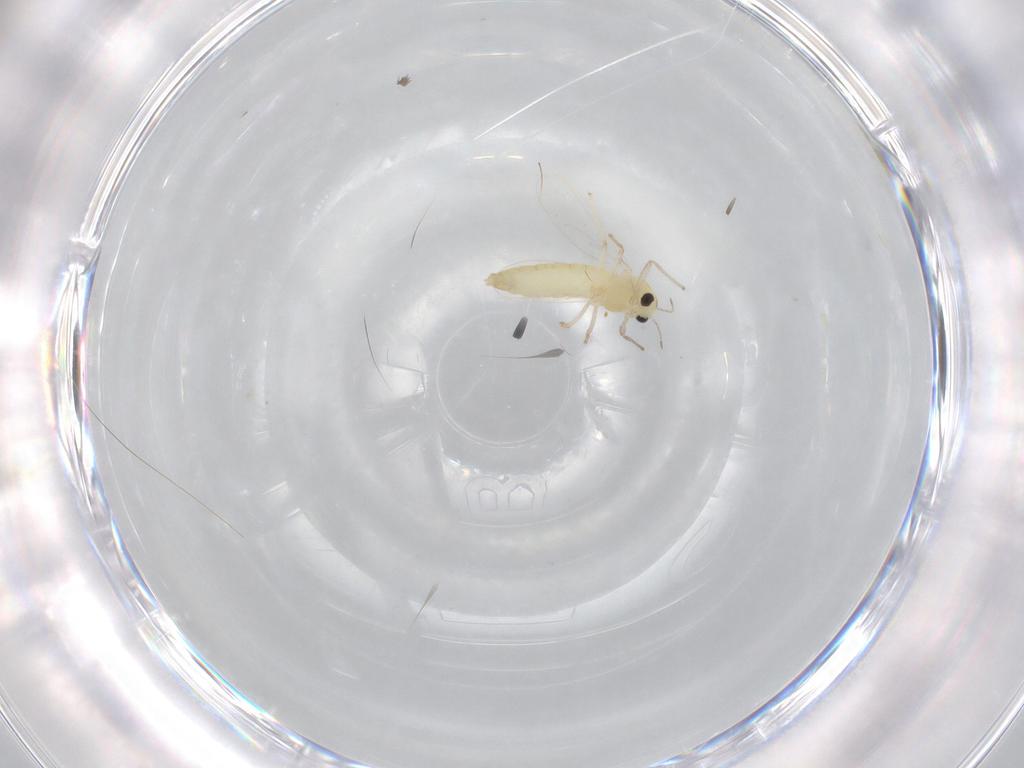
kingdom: Animalia
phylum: Arthropoda
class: Insecta
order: Diptera
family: Chironomidae
